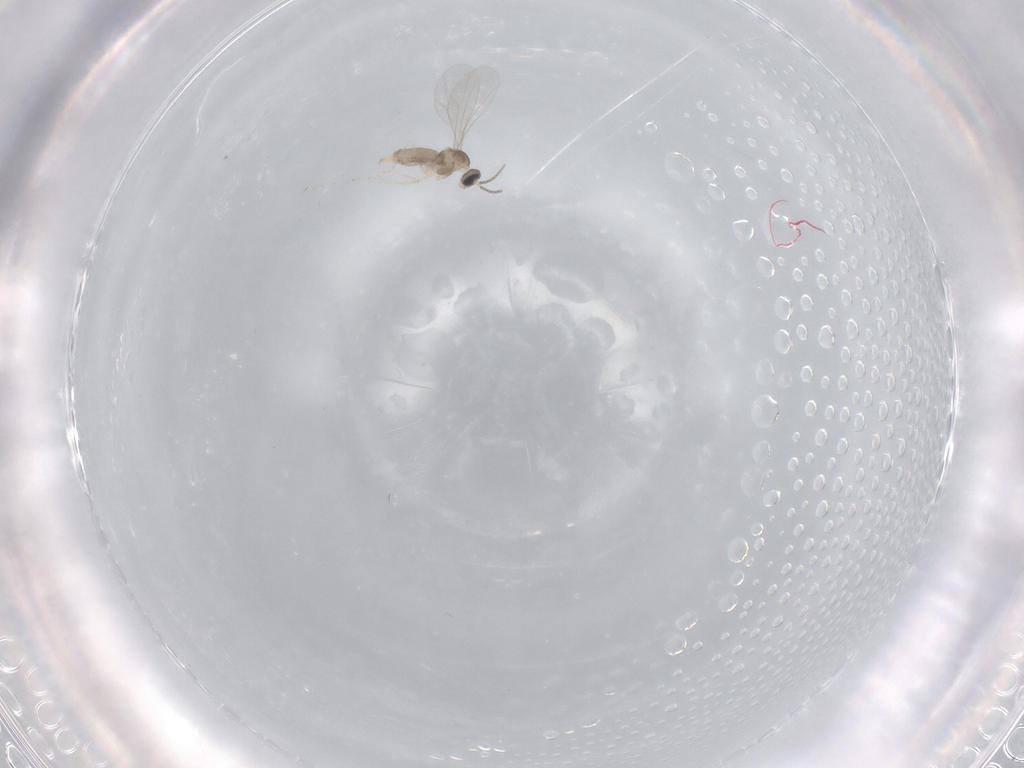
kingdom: Animalia
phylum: Arthropoda
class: Insecta
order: Diptera
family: Cecidomyiidae
